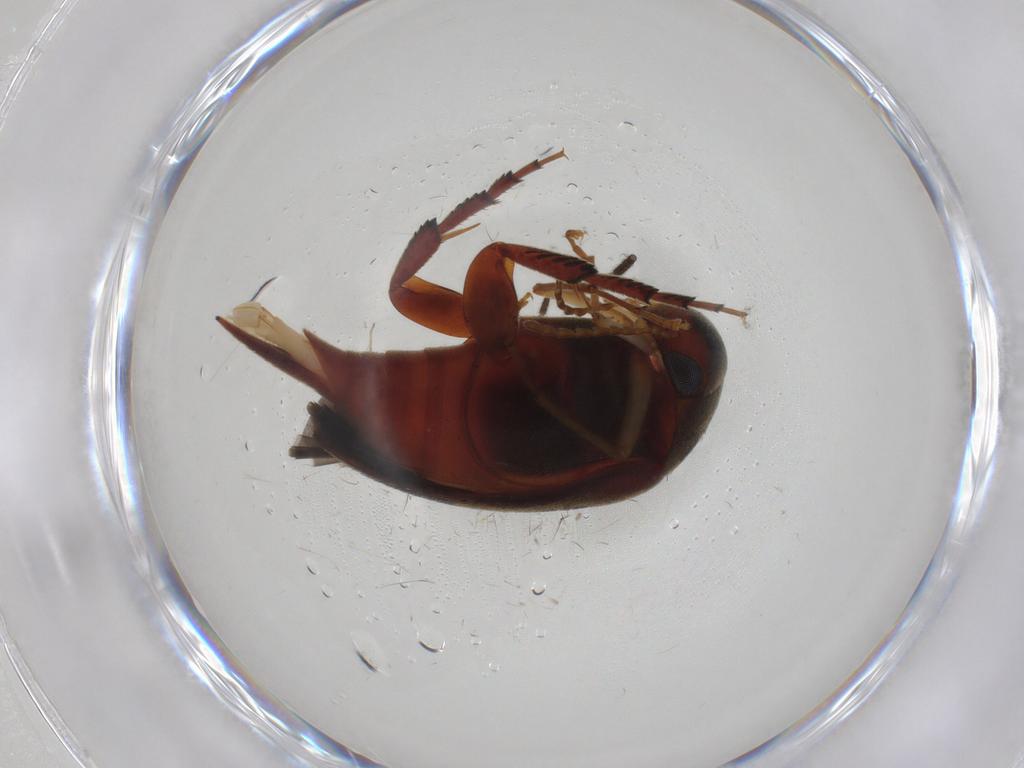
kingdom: Animalia
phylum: Arthropoda
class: Insecta
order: Coleoptera
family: Mordellidae
